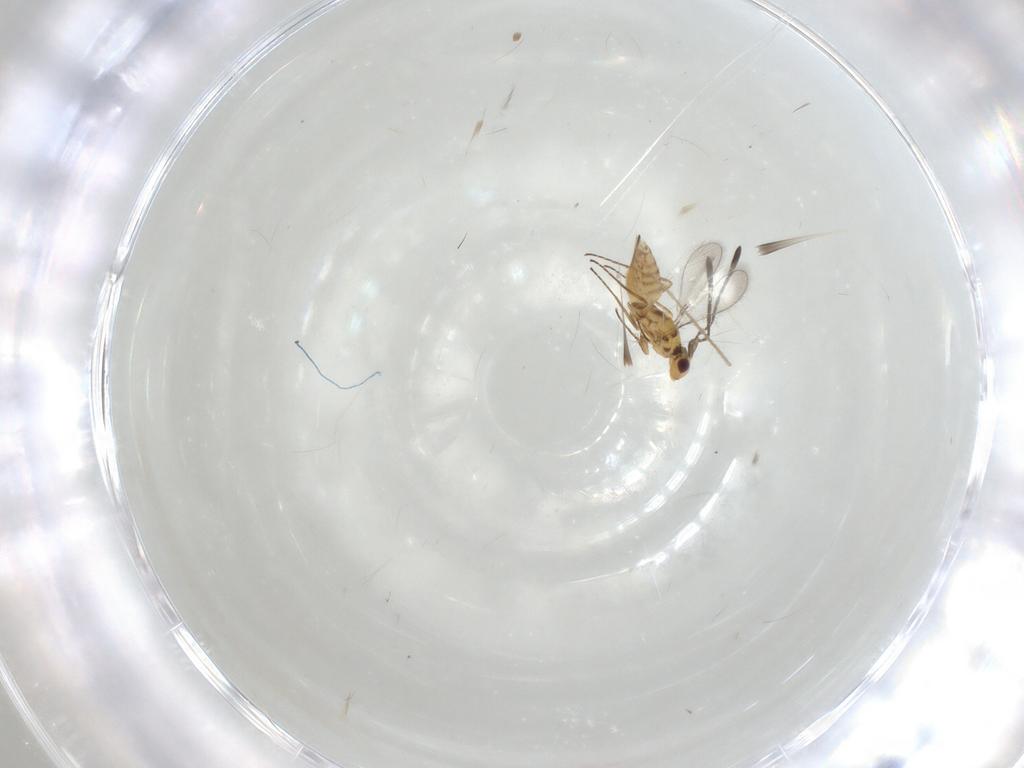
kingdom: Animalia
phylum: Arthropoda
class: Insecta
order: Hymenoptera
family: Mymaridae
